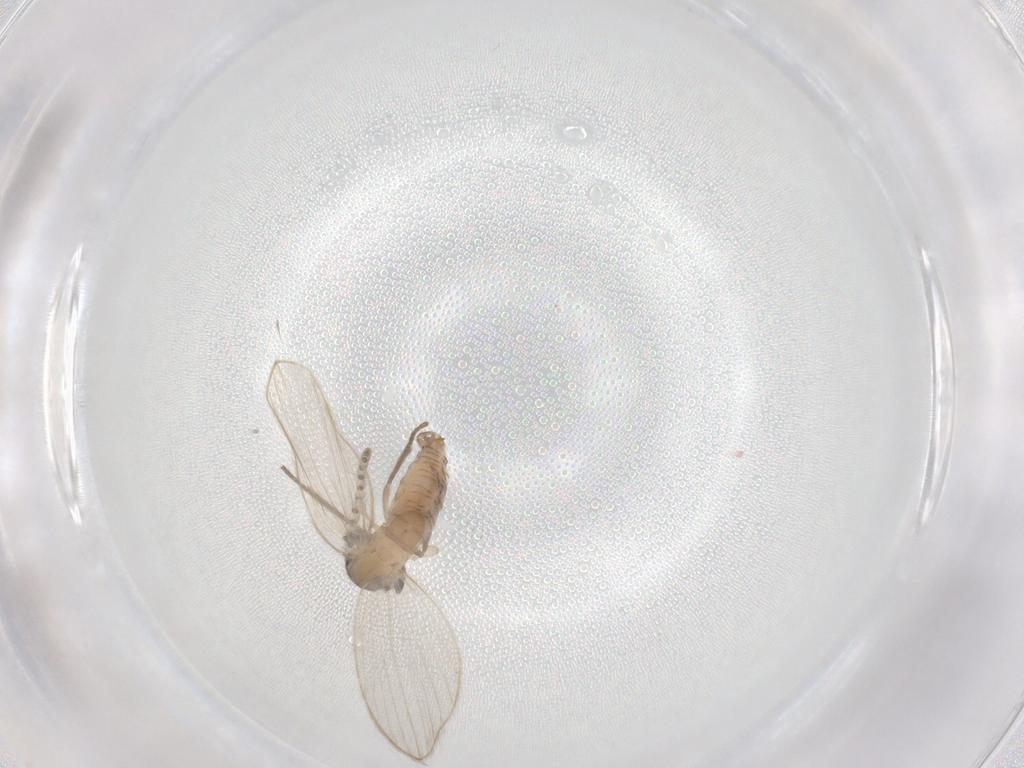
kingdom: Animalia
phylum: Arthropoda
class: Insecta
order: Diptera
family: Psychodidae
